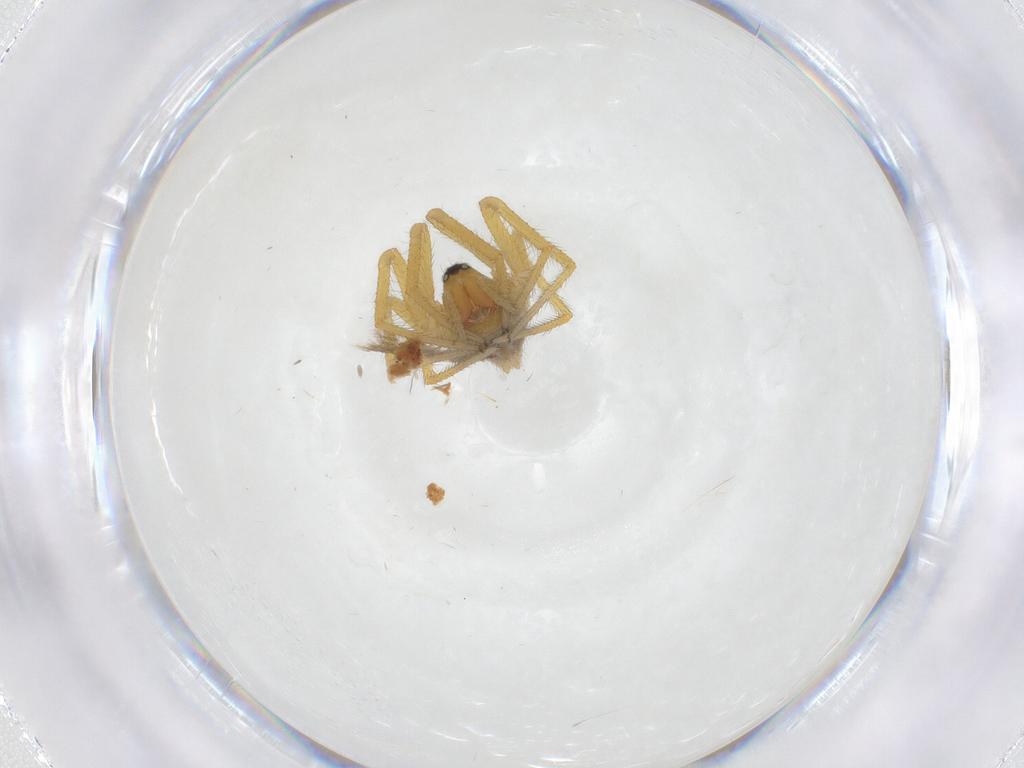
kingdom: Animalia
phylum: Arthropoda
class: Arachnida
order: Araneae
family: Linyphiidae
